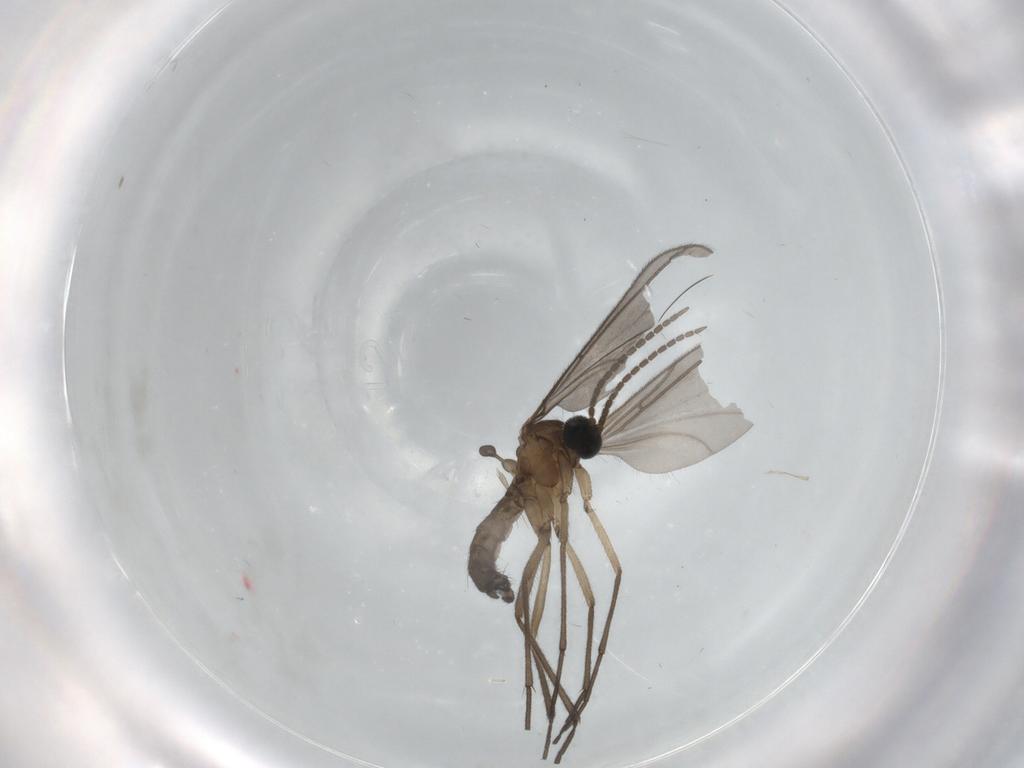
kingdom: Animalia
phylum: Arthropoda
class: Insecta
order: Diptera
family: Sciaridae
